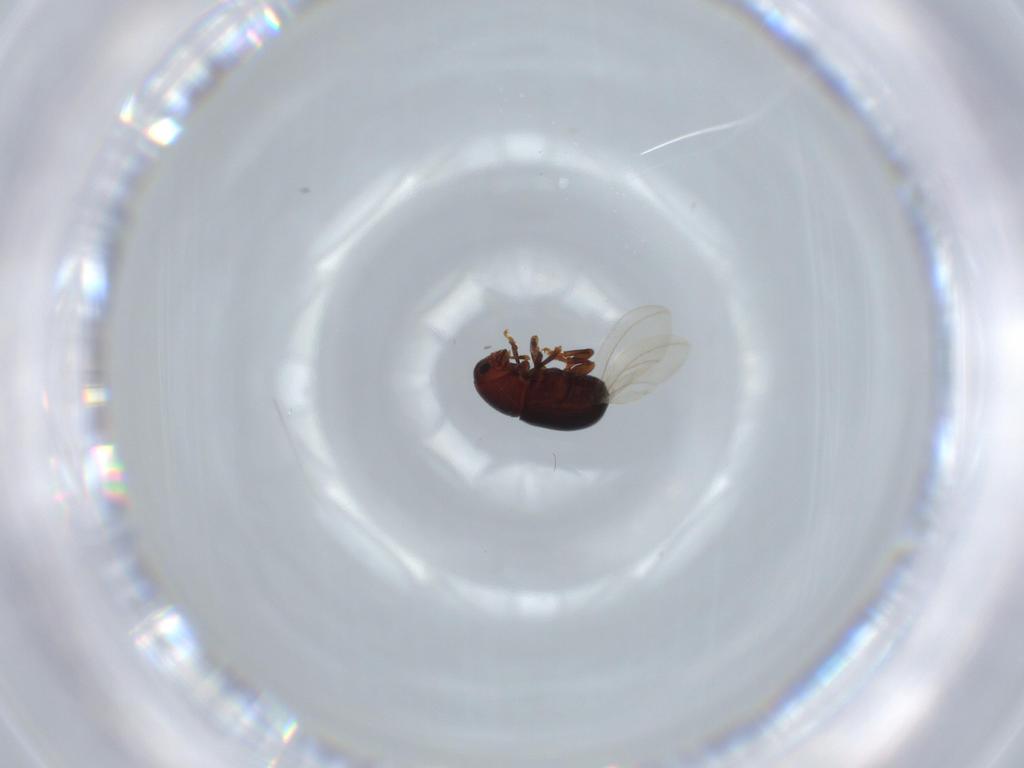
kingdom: Animalia
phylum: Arthropoda
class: Insecta
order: Coleoptera
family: Anthribidae
